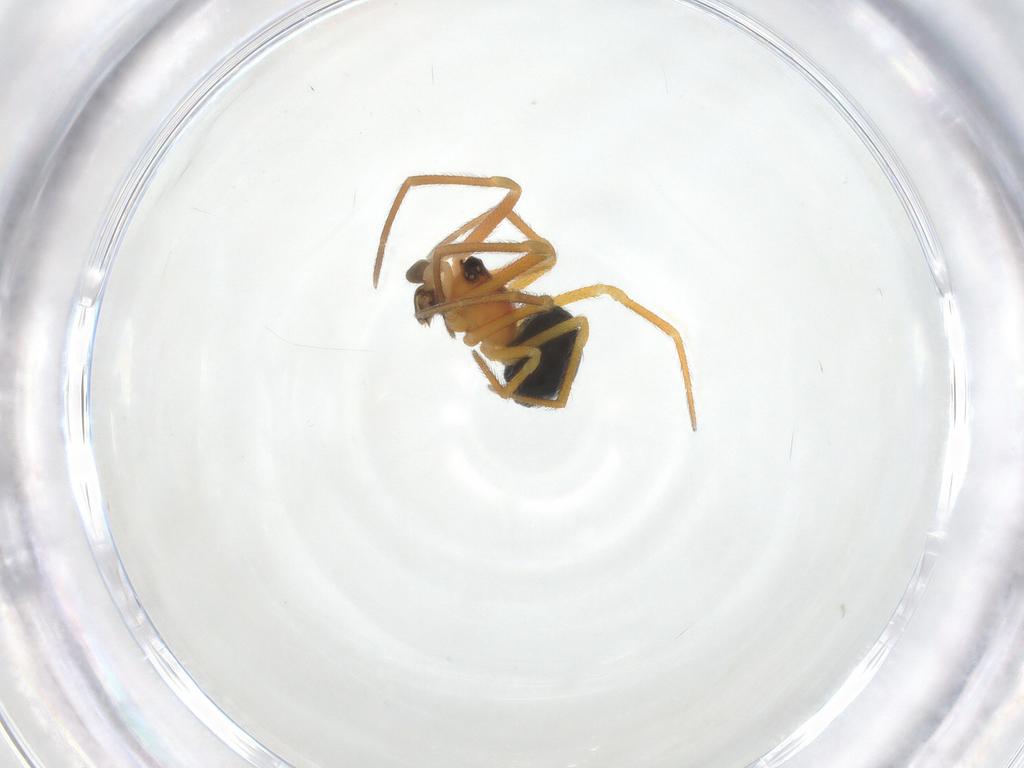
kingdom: Animalia
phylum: Arthropoda
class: Arachnida
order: Araneae
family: Theridiidae
